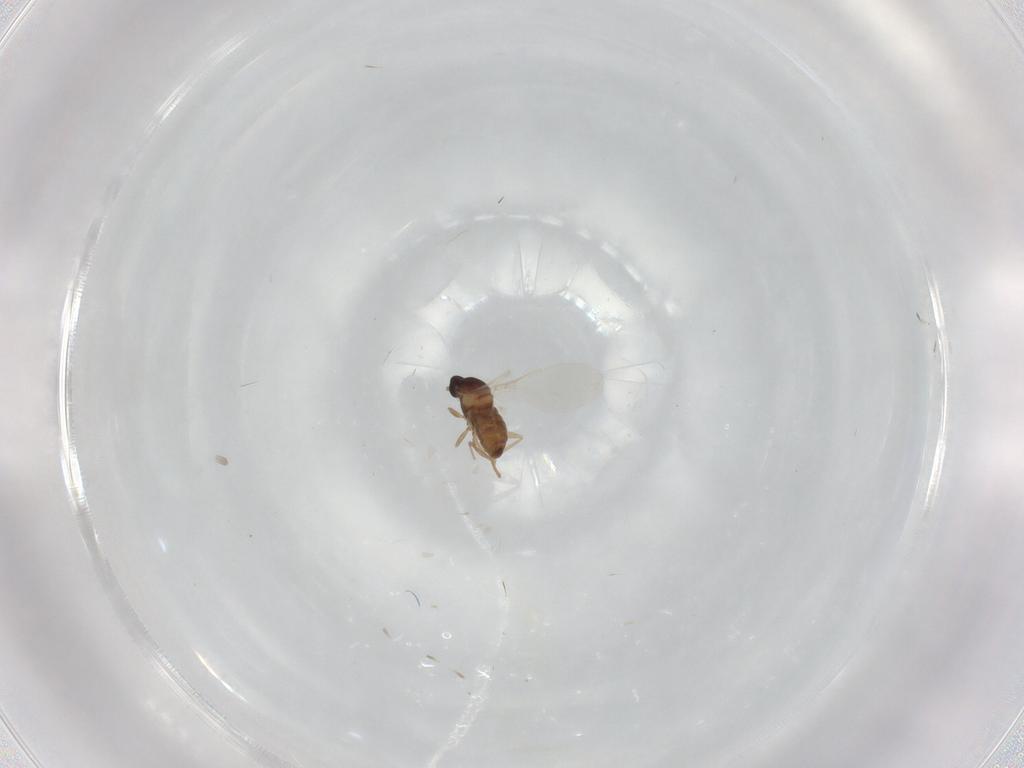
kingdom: Animalia
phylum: Arthropoda
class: Insecta
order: Diptera
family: Cecidomyiidae
